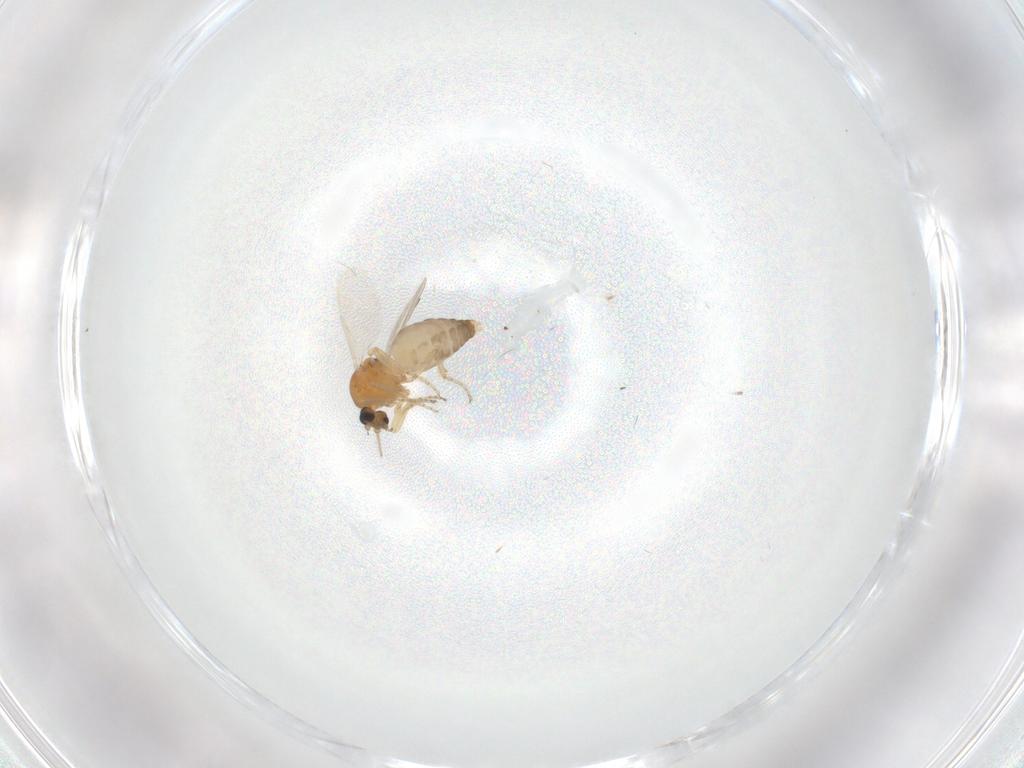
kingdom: Animalia
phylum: Arthropoda
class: Insecta
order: Diptera
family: Ceratopogonidae
